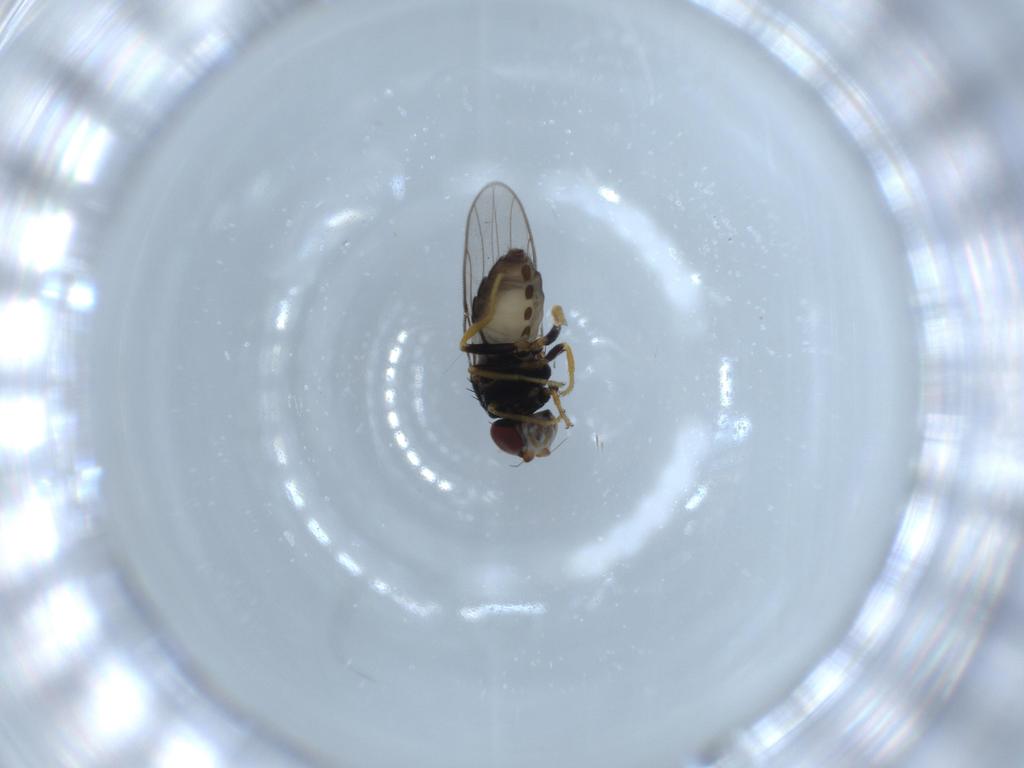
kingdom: Animalia
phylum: Arthropoda
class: Insecta
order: Diptera
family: Chloropidae
